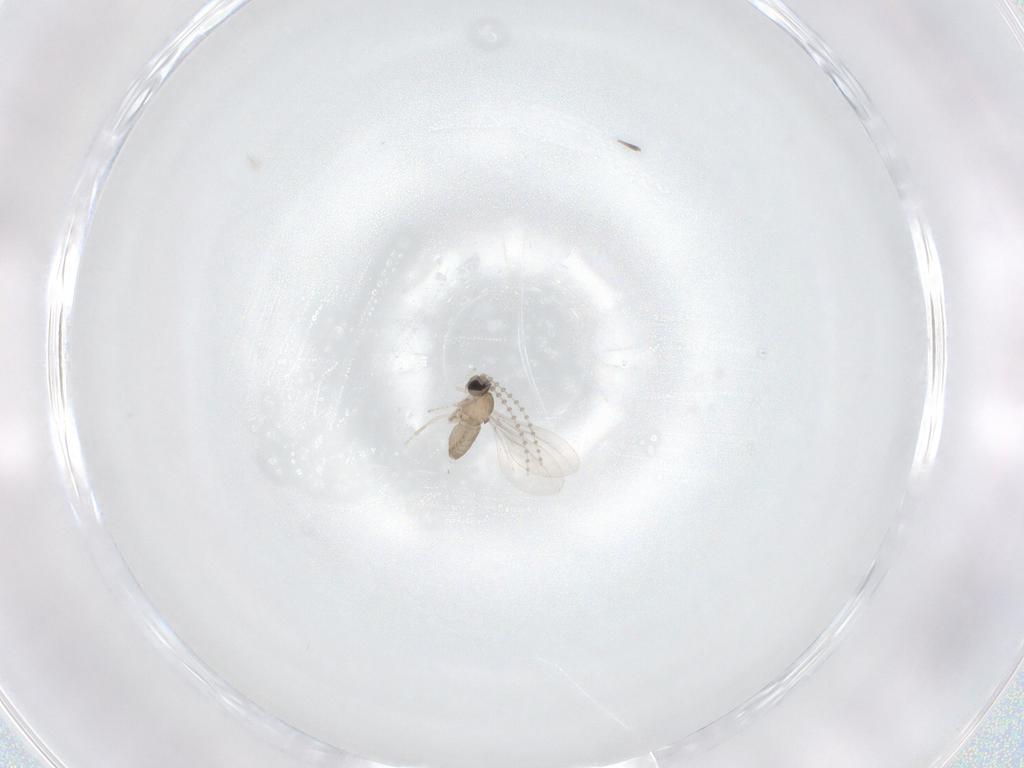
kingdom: Animalia
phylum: Arthropoda
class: Insecta
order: Diptera
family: Cecidomyiidae
